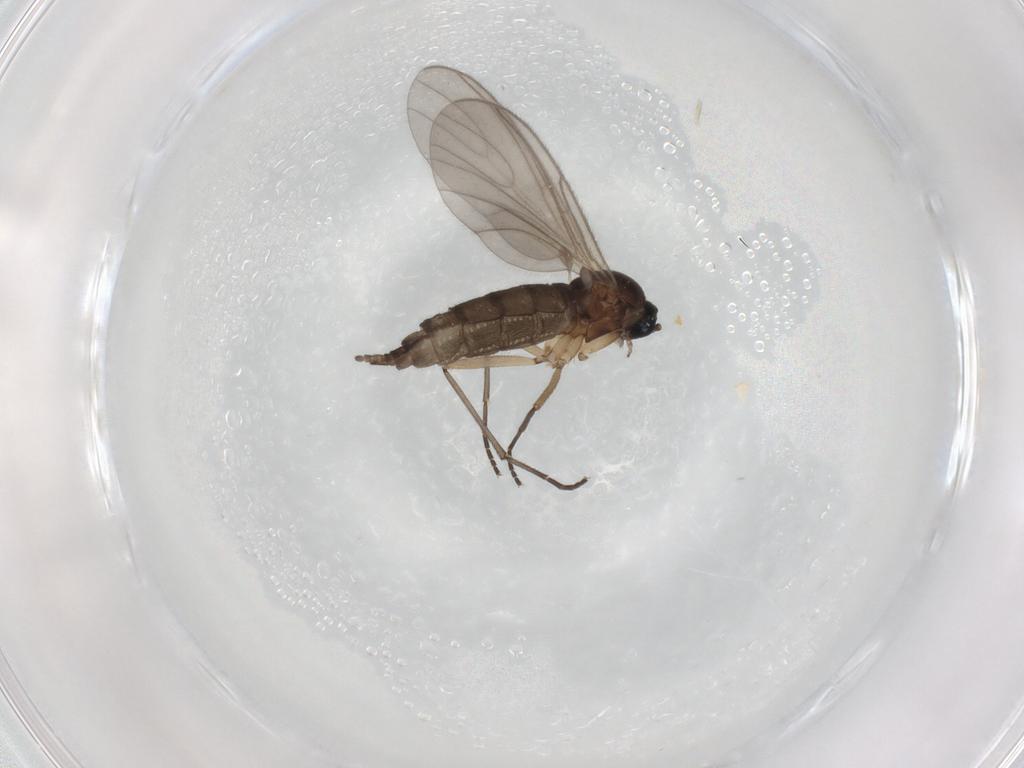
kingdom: Animalia
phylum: Arthropoda
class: Insecta
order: Diptera
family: Sciaridae
